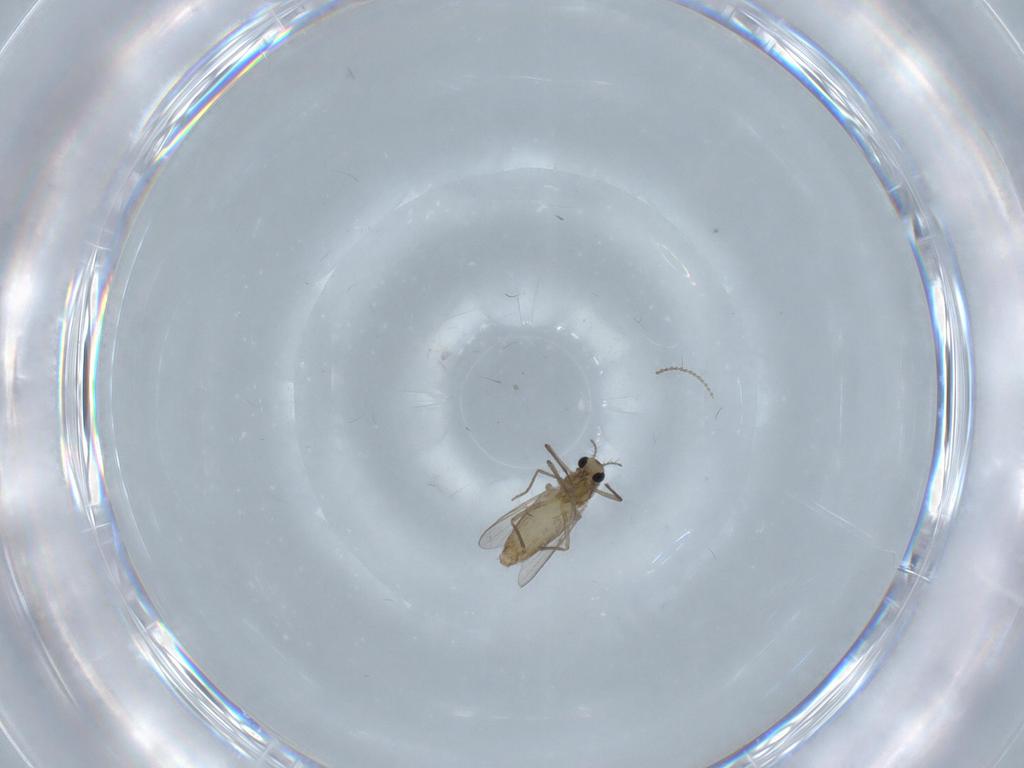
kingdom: Animalia
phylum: Arthropoda
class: Insecta
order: Diptera
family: Chironomidae
